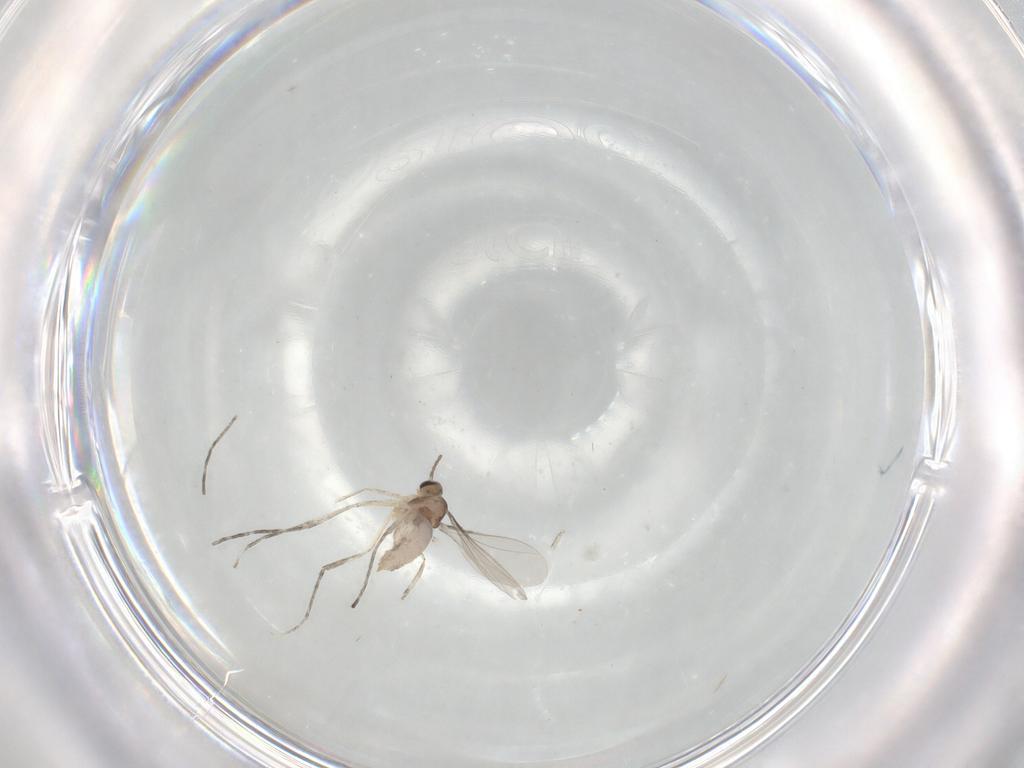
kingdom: Animalia
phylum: Arthropoda
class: Insecta
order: Diptera
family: Cecidomyiidae
